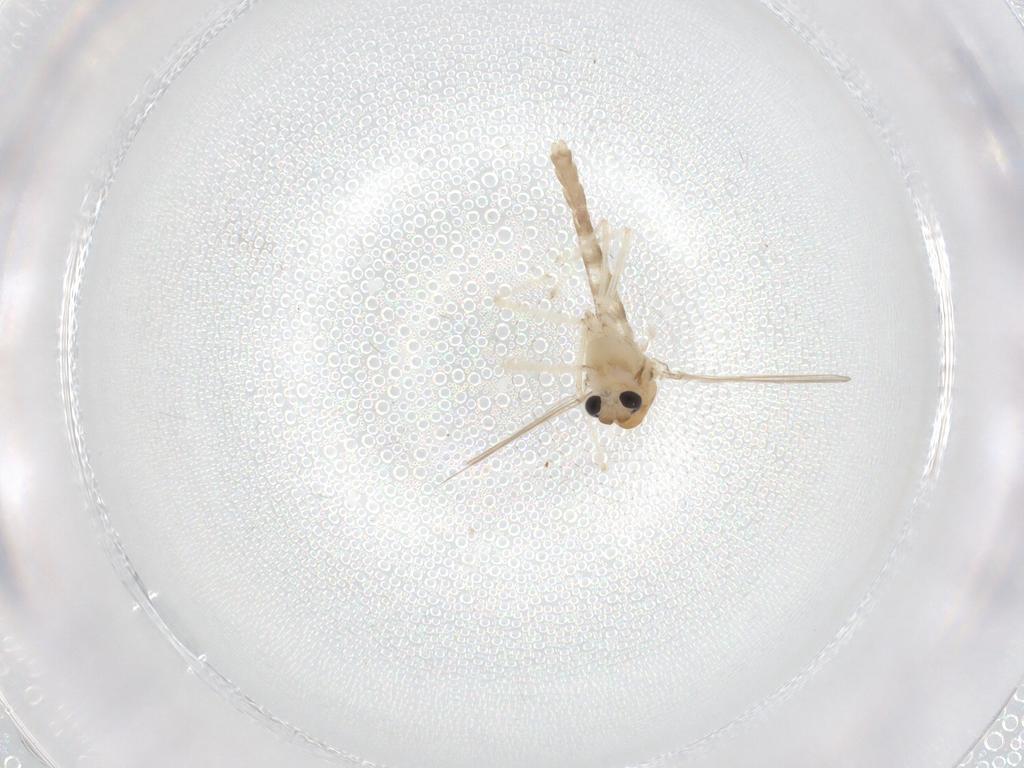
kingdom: Animalia
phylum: Arthropoda
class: Insecta
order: Diptera
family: Chironomidae
